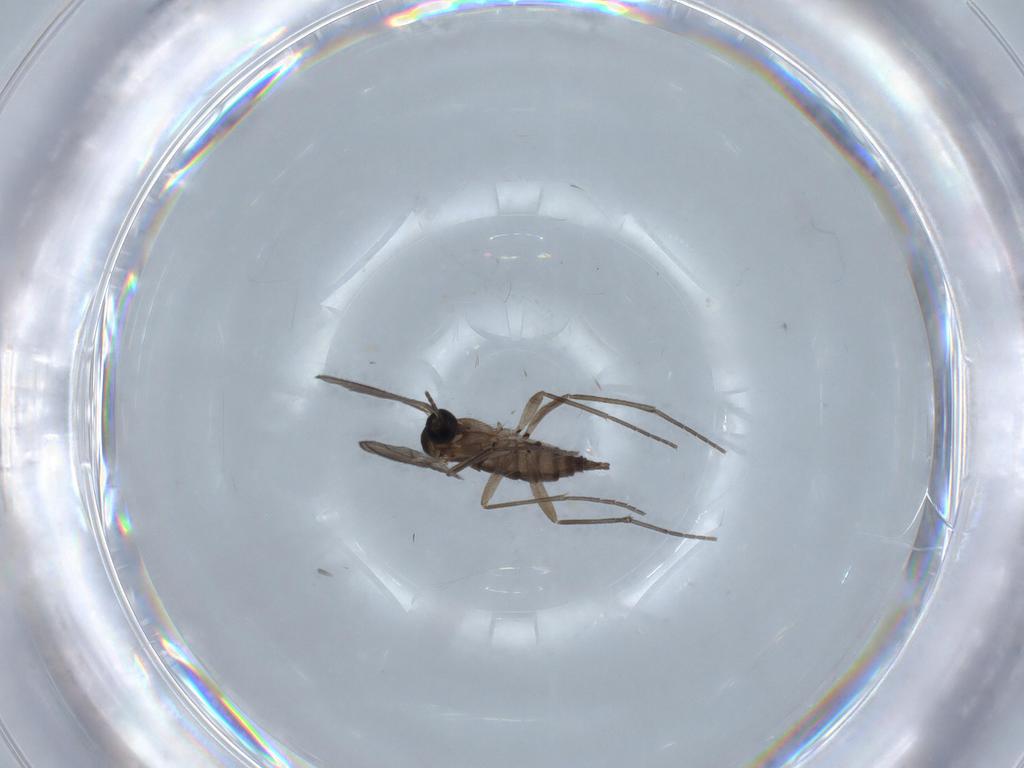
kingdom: Animalia
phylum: Arthropoda
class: Insecta
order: Diptera
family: Sciaridae
